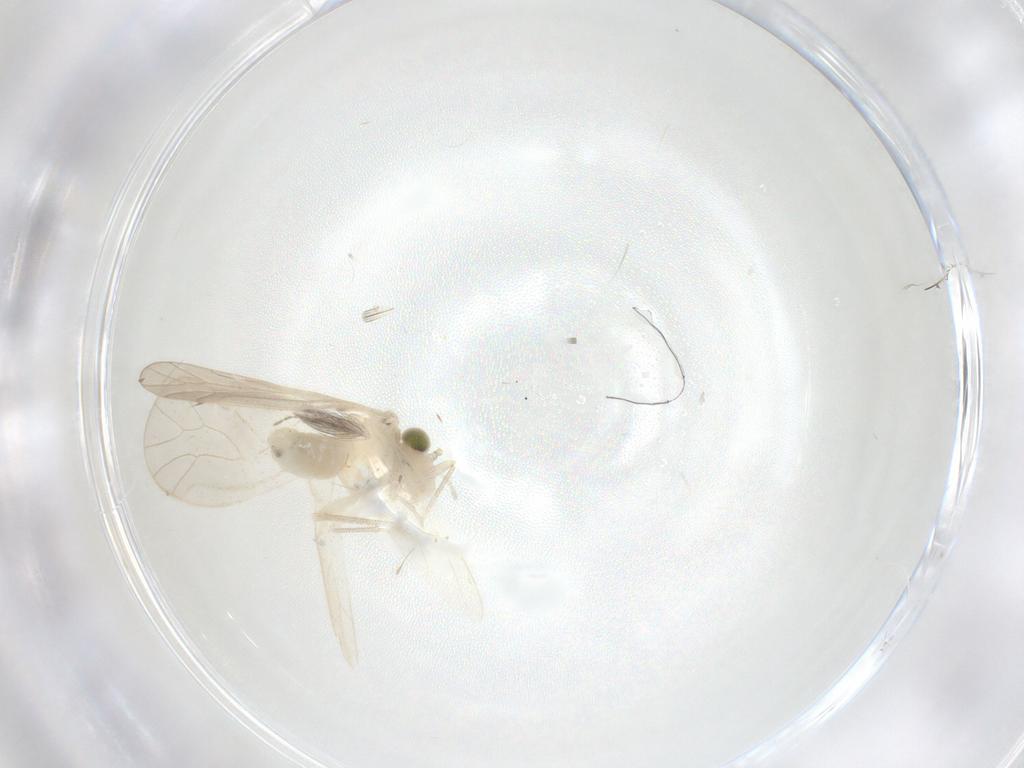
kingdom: Animalia
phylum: Arthropoda
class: Insecta
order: Psocodea
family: Caeciliusidae
